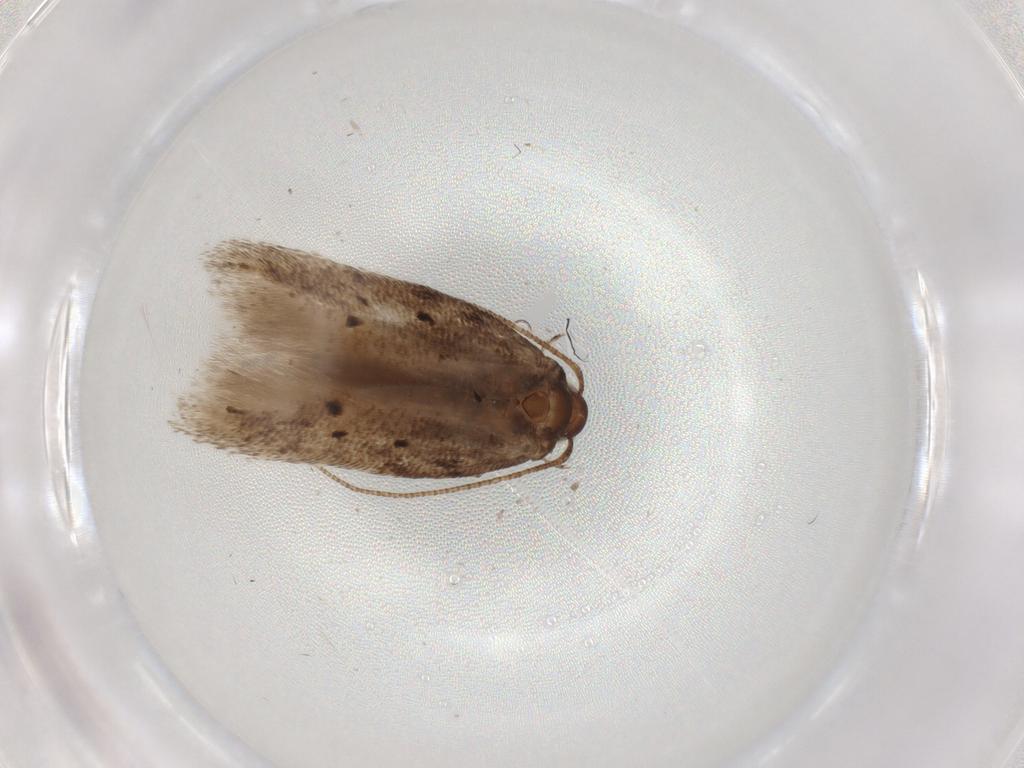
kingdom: Animalia
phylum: Arthropoda
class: Insecta
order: Lepidoptera
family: Gelechiidae
